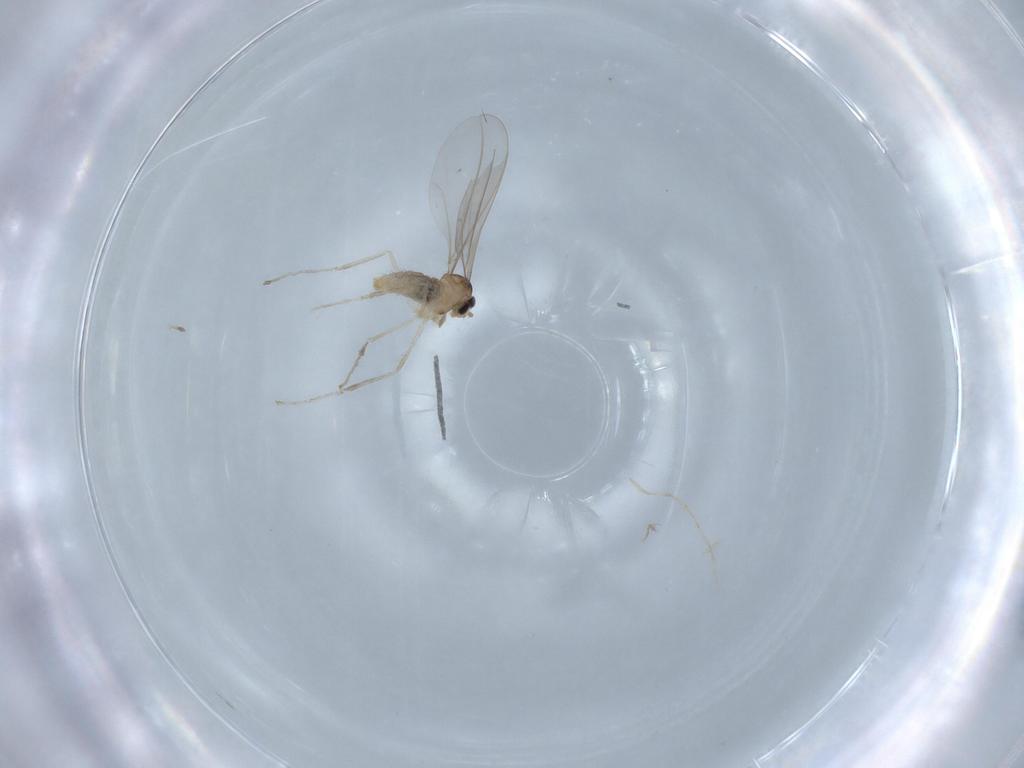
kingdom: Animalia
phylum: Arthropoda
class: Insecta
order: Diptera
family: Cecidomyiidae
